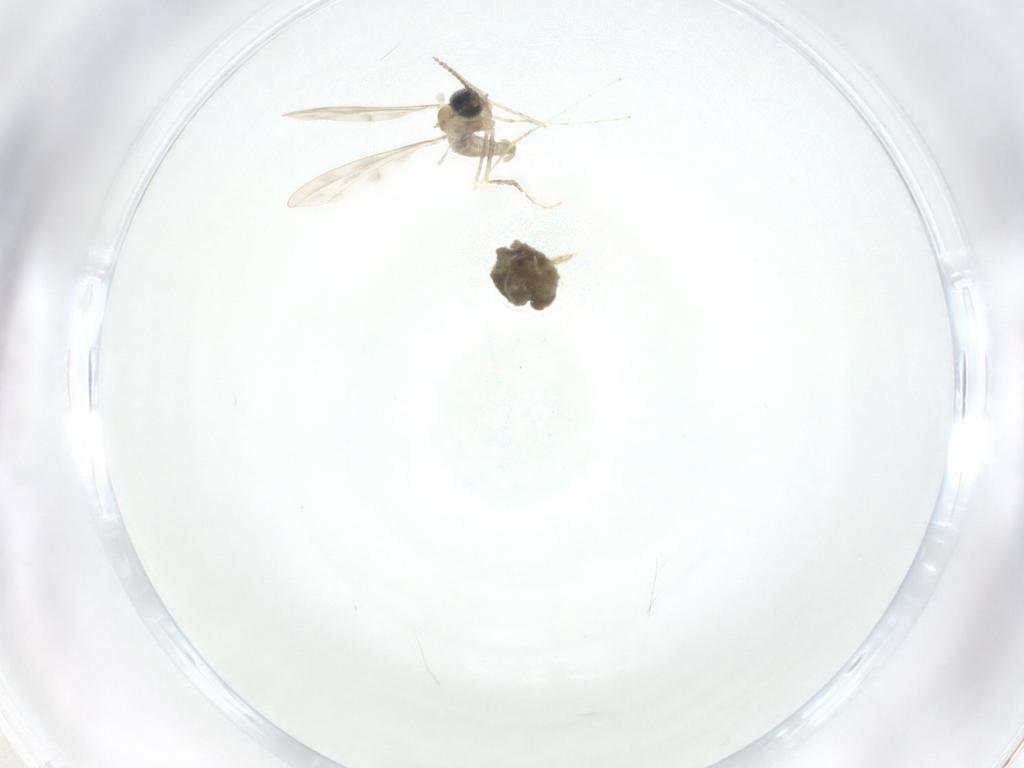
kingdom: Animalia
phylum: Arthropoda
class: Insecta
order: Diptera
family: Cecidomyiidae
